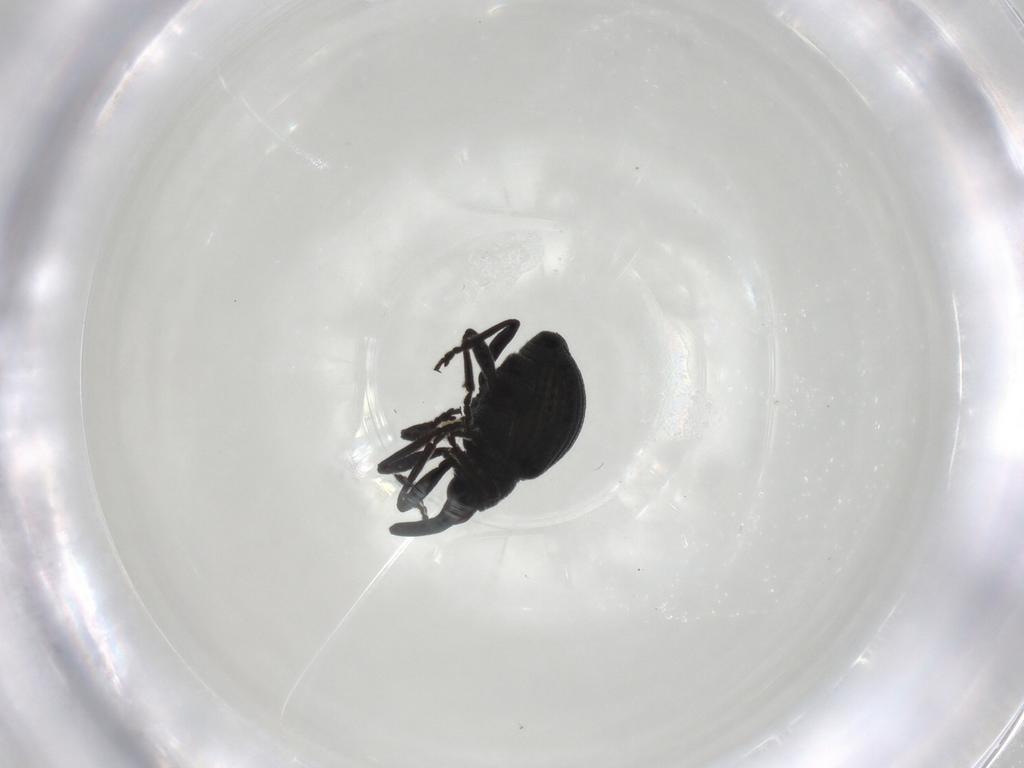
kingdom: Animalia
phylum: Arthropoda
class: Insecta
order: Coleoptera
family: Brentidae
